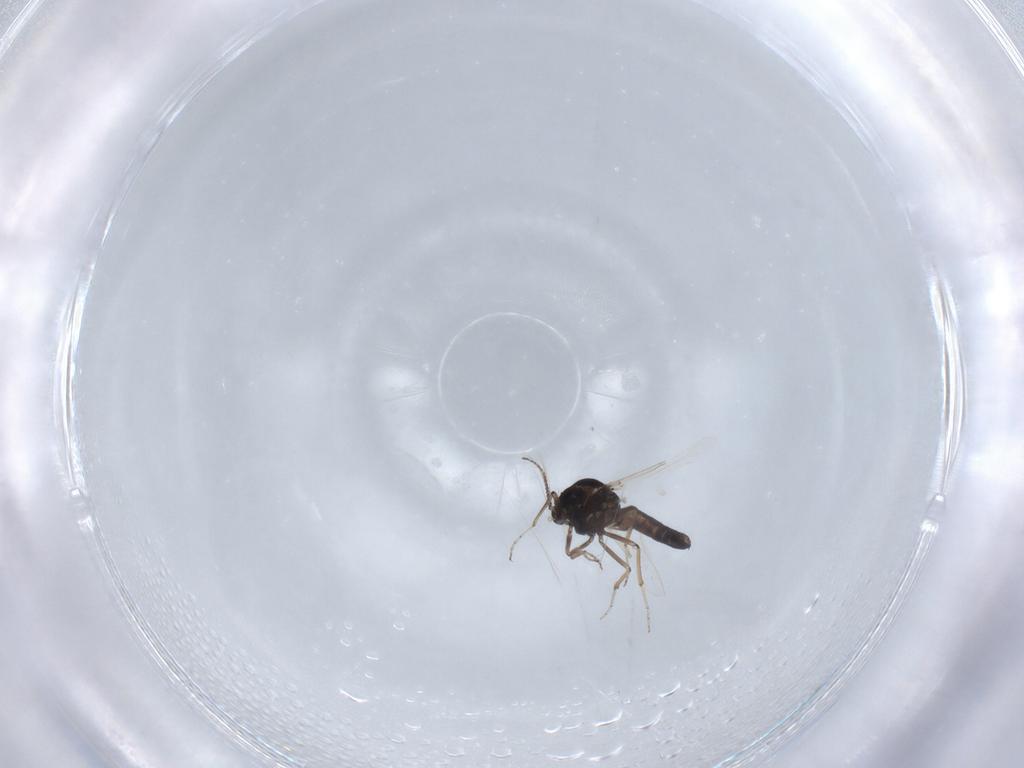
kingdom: Animalia
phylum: Arthropoda
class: Insecta
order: Diptera
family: Ceratopogonidae
